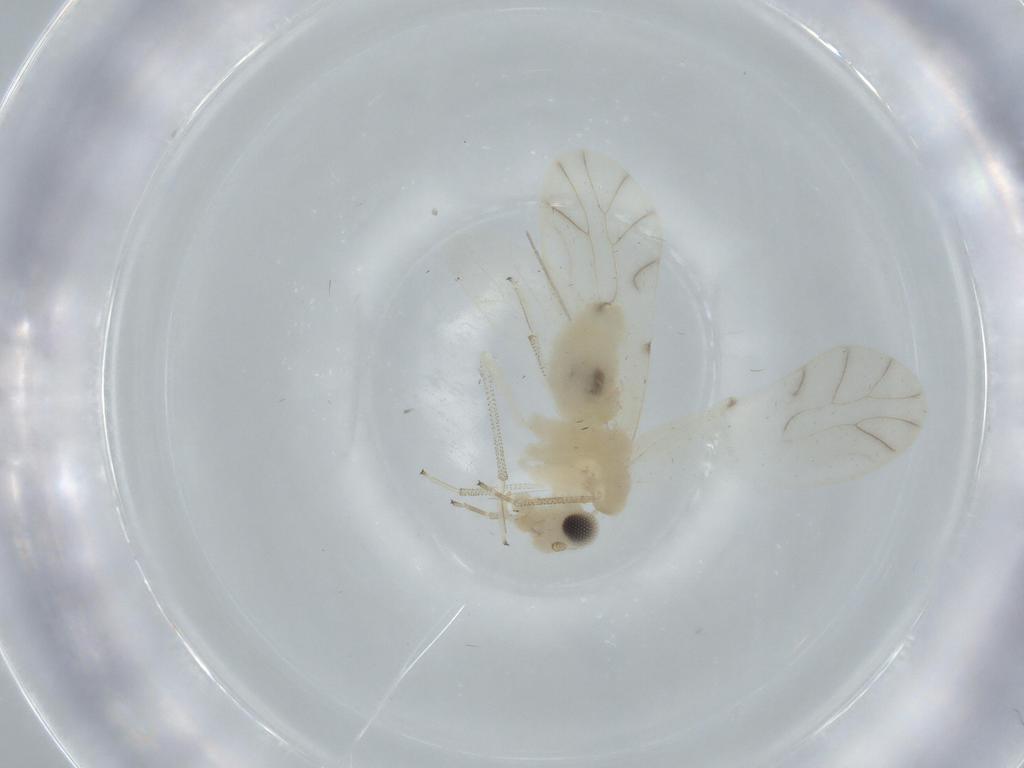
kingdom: Animalia
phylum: Arthropoda
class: Insecta
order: Psocodea
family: Caeciliusidae
